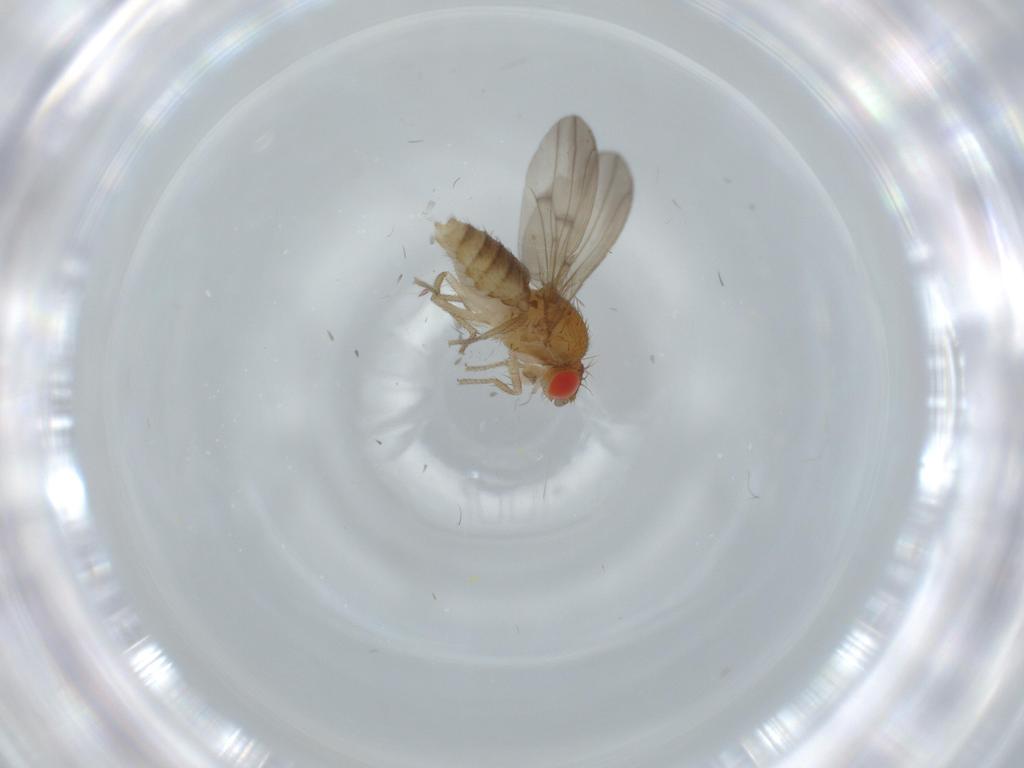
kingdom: Animalia
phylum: Arthropoda
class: Insecta
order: Diptera
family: Drosophilidae
